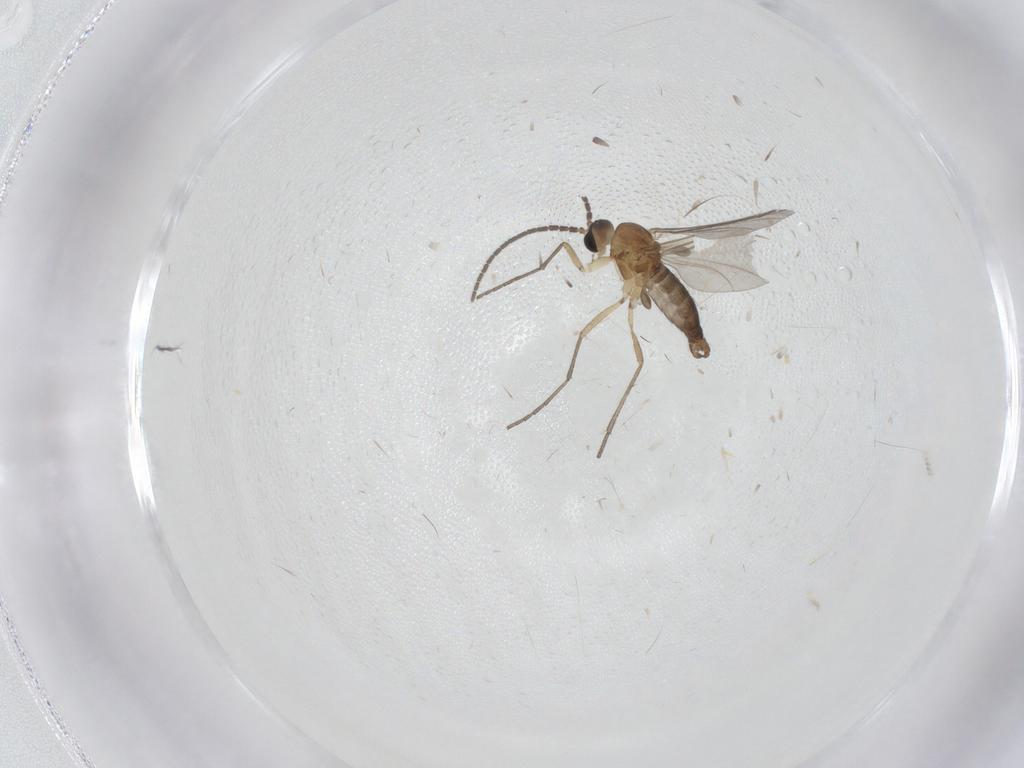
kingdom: Animalia
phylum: Arthropoda
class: Insecta
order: Diptera
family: Sciaridae
